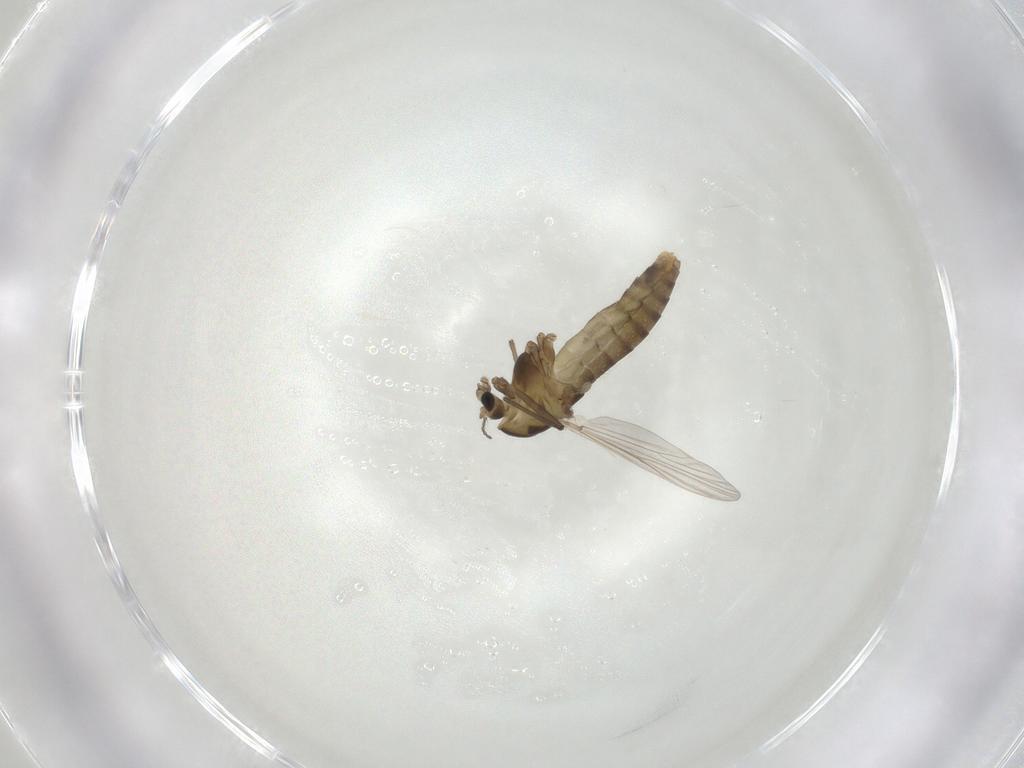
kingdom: Animalia
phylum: Arthropoda
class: Insecta
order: Diptera
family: Chironomidae
